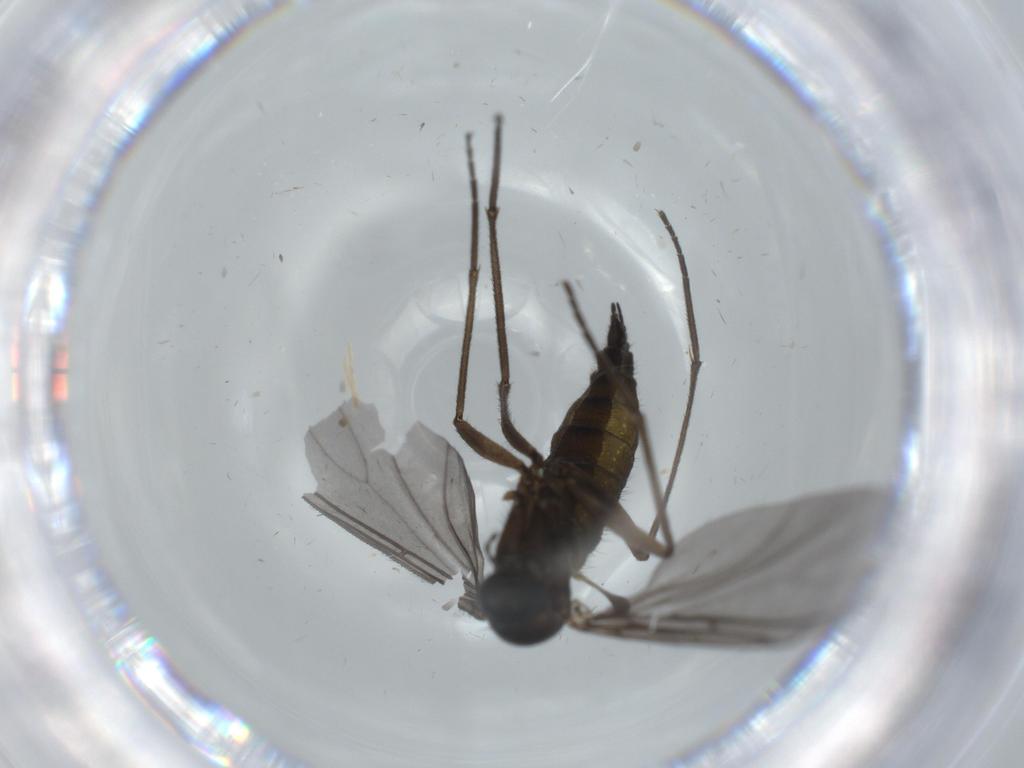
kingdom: Animalia
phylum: Arthropoda
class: Insecta
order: Diptera
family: Sciaridae
